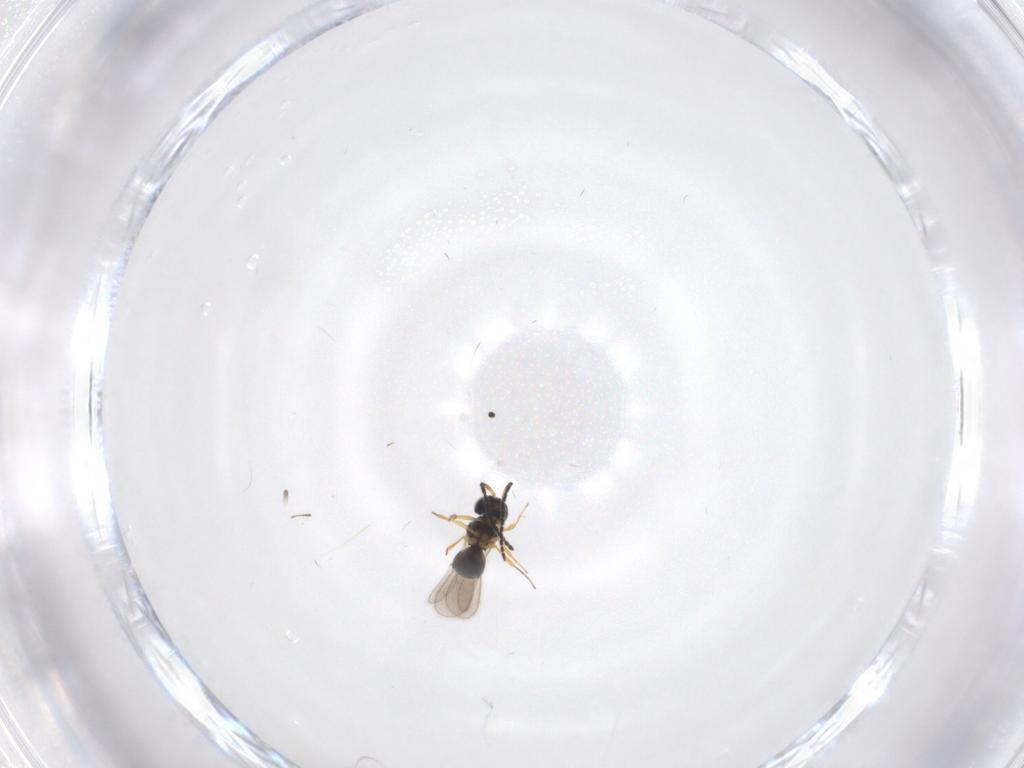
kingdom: Animalia
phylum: Arthropoda
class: Insecta
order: Hymenoptera
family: Scelionidae
